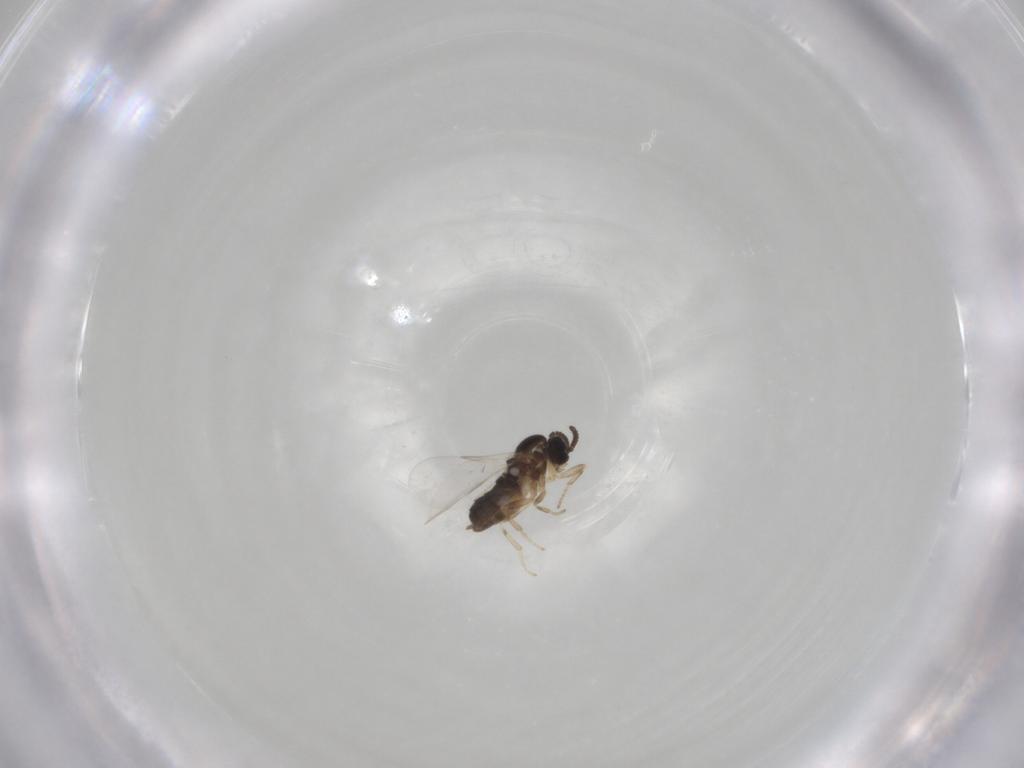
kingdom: Animalia
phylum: Arthropoda
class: Insecta
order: Diptera
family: Scatopsidae
